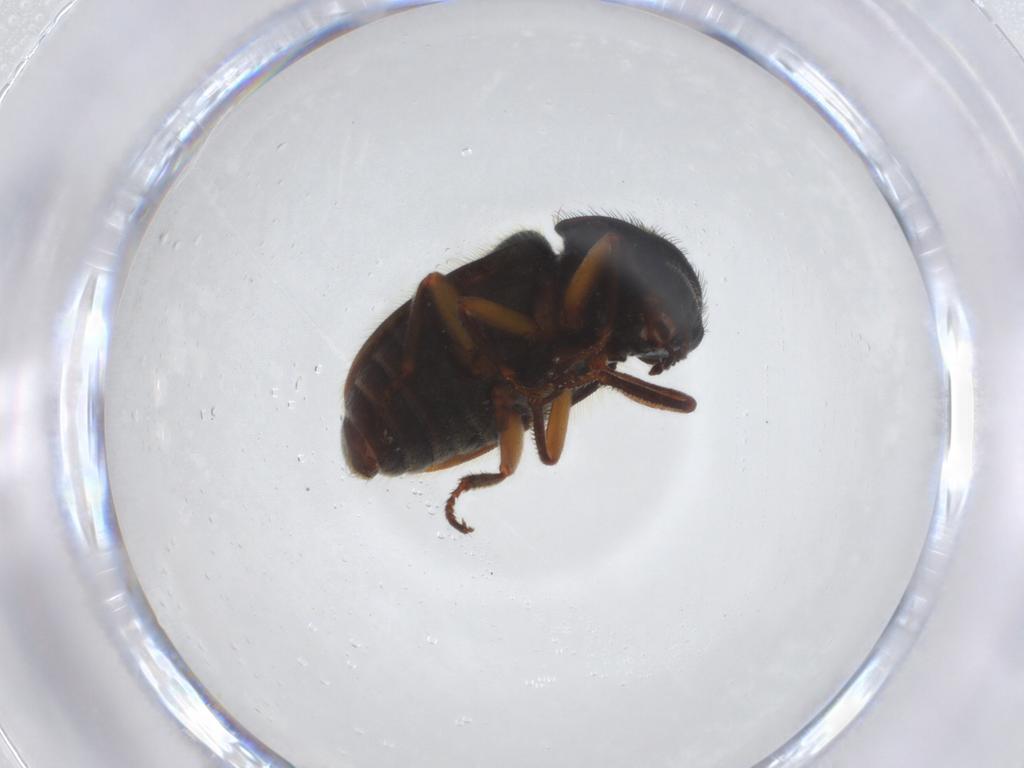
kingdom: Animalia
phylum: Arthropoda
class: Insecta
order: Coleoptera
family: Melyridae
